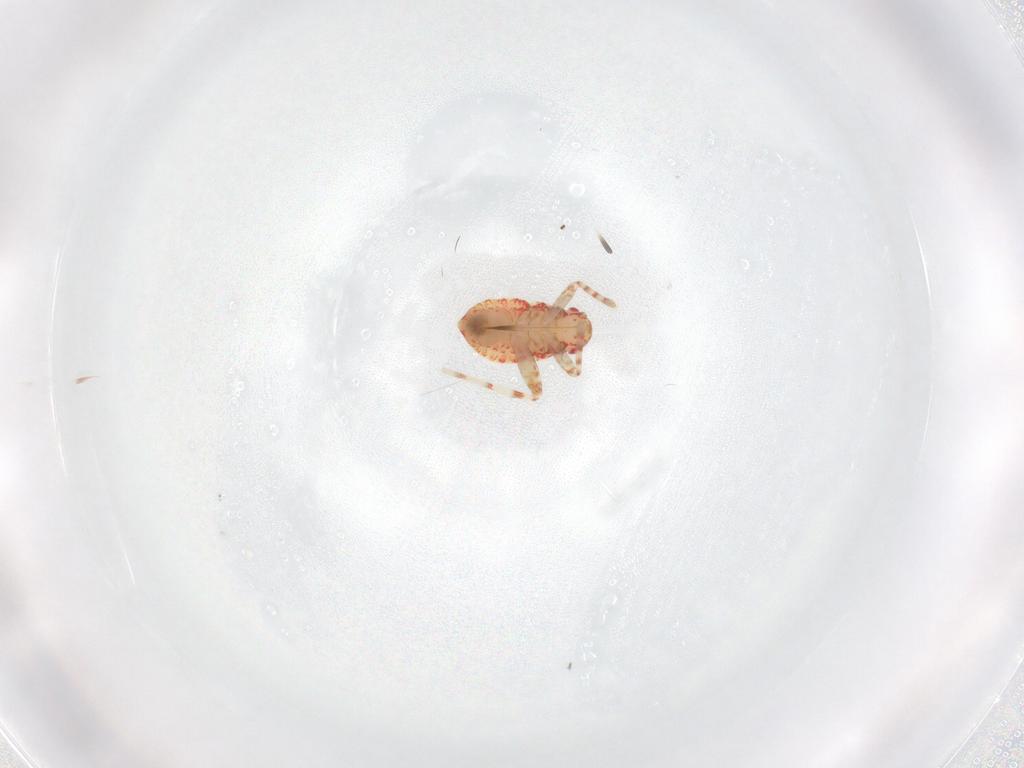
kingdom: Animalia
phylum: Arthropoda
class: Insecta
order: Hemiptera
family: Miridae
